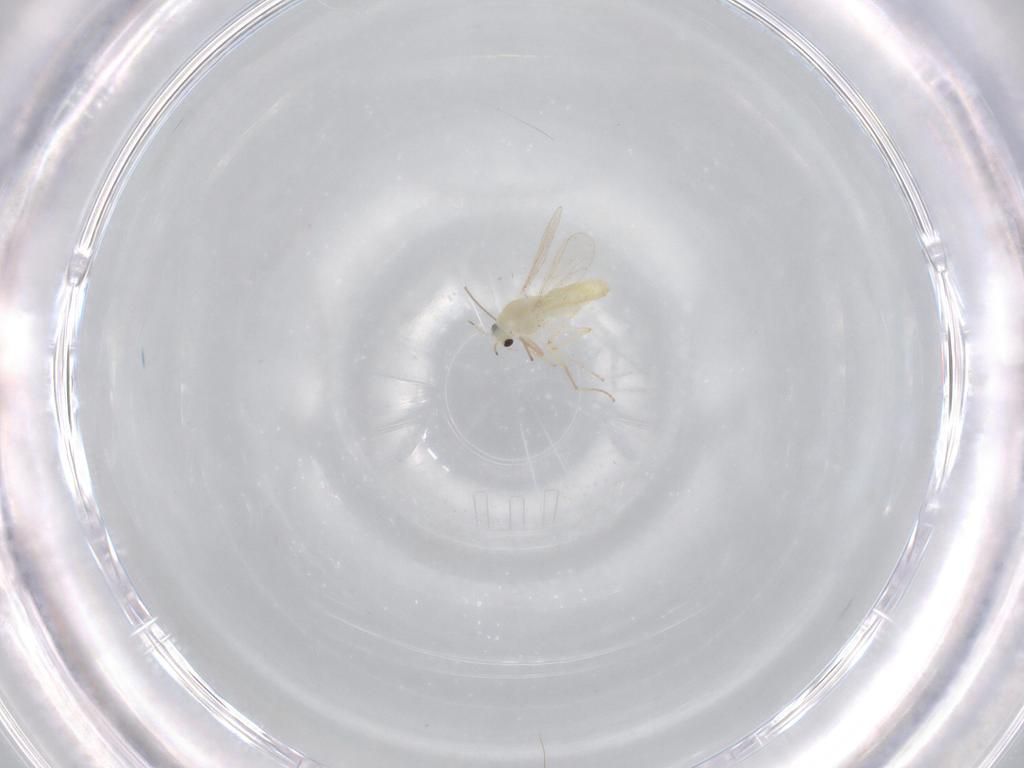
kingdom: Animalia
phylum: Arthropoda
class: Insecta
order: Diptera
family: Chironomidae
